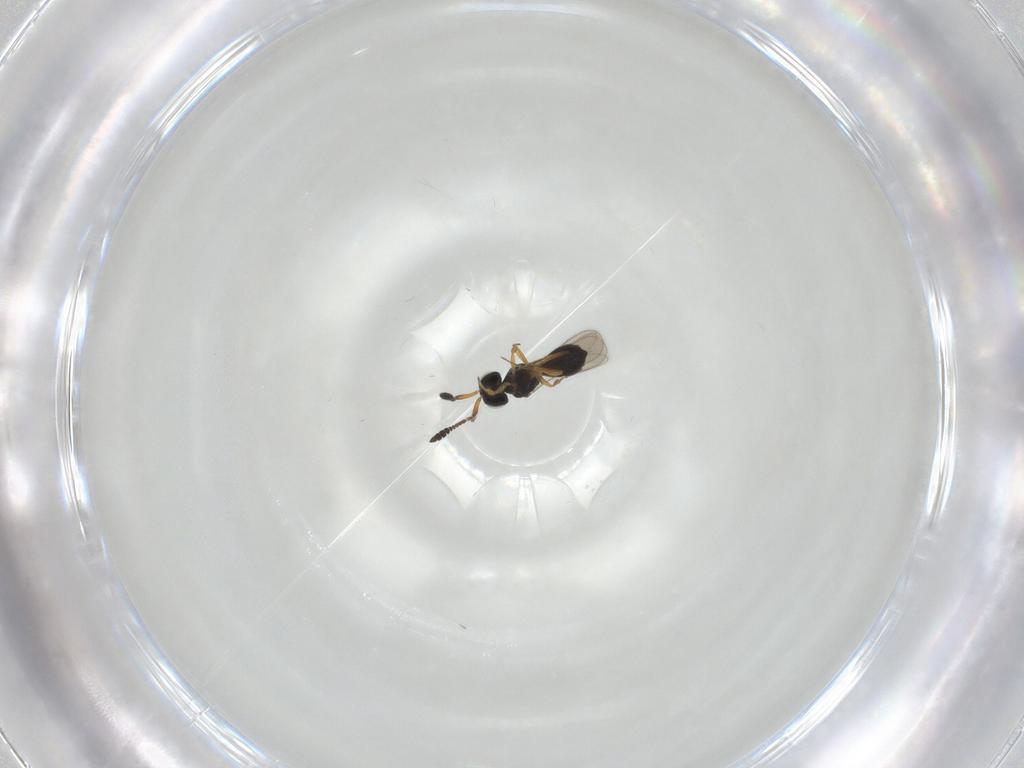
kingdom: Animalia
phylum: Arthropoda
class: Insecta
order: Hymenoptera
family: Scelionidae
